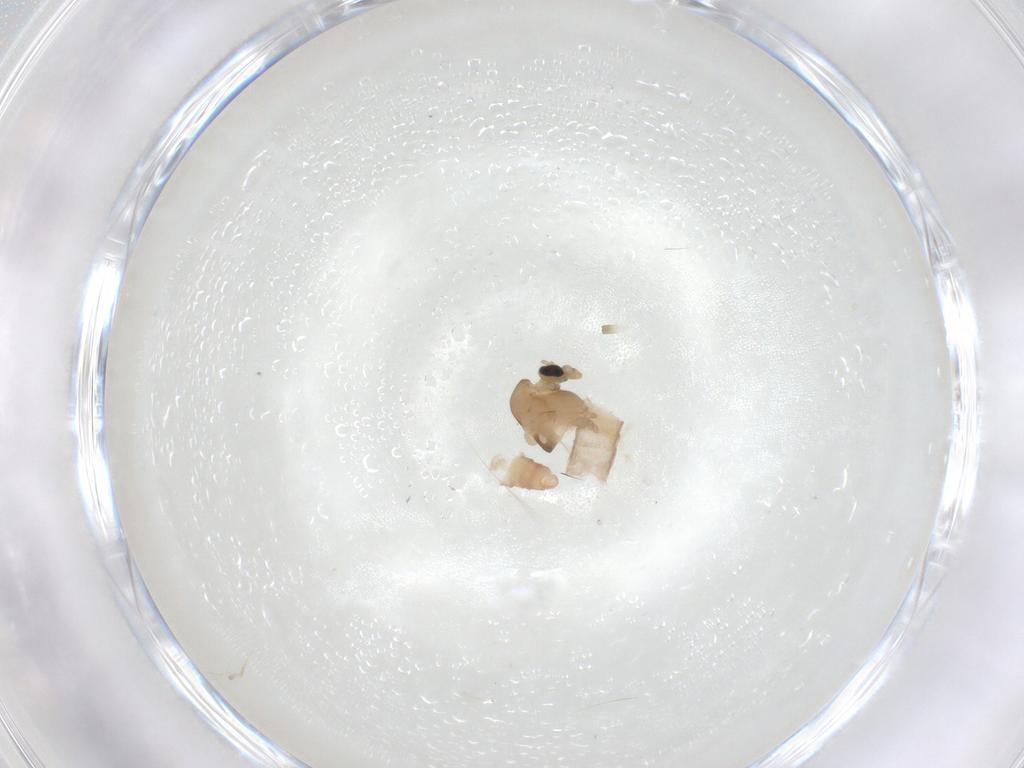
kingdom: Animalia
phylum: Arthropoda
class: Insecta
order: Diptera
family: Chironomidae
